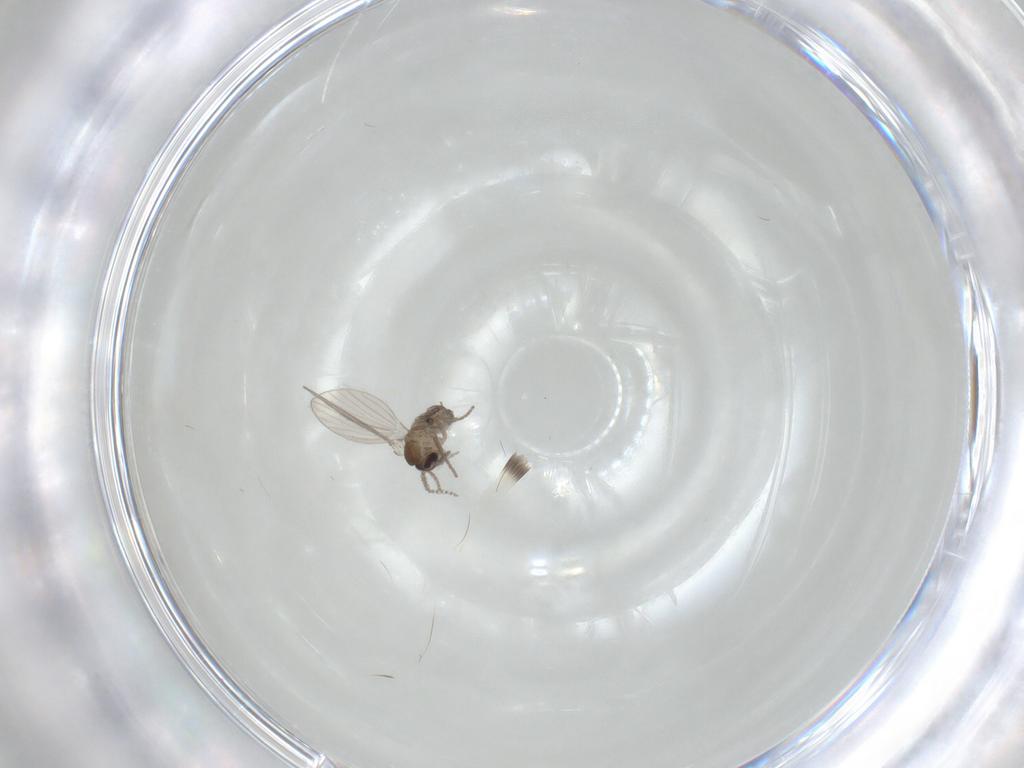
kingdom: Animalia
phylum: Arthropoda
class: Insecta
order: Diptera
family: Psychodidae
